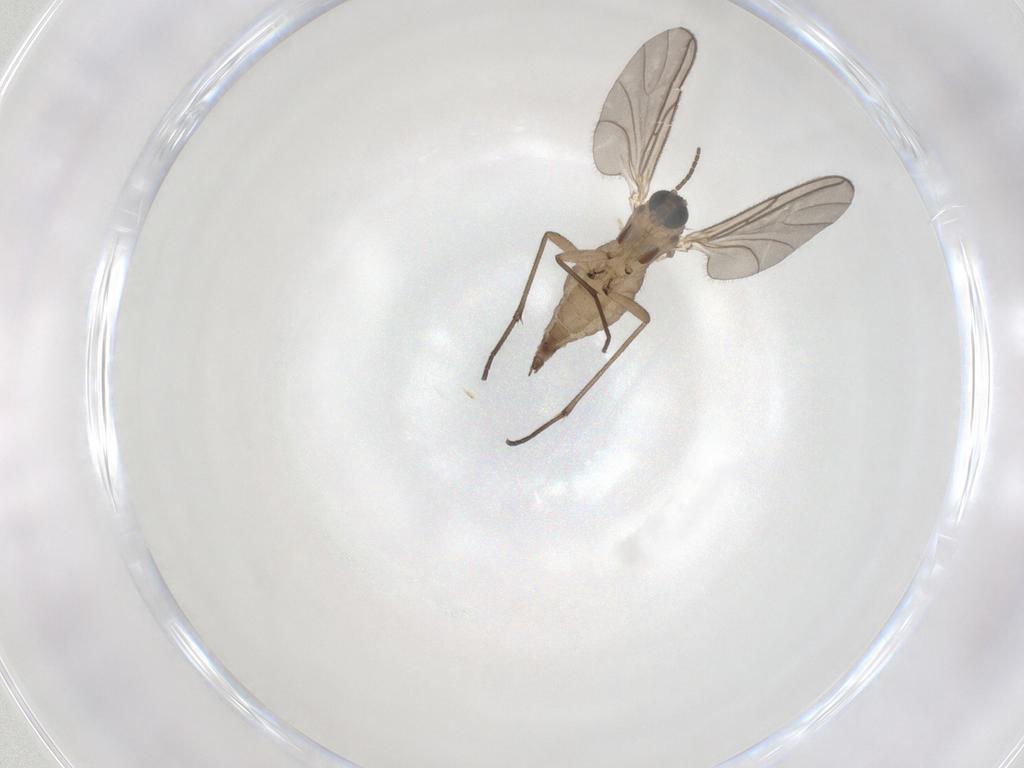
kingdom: Animalia
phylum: Arthropoda
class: Insecta
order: Diptera
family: Sciaridae
